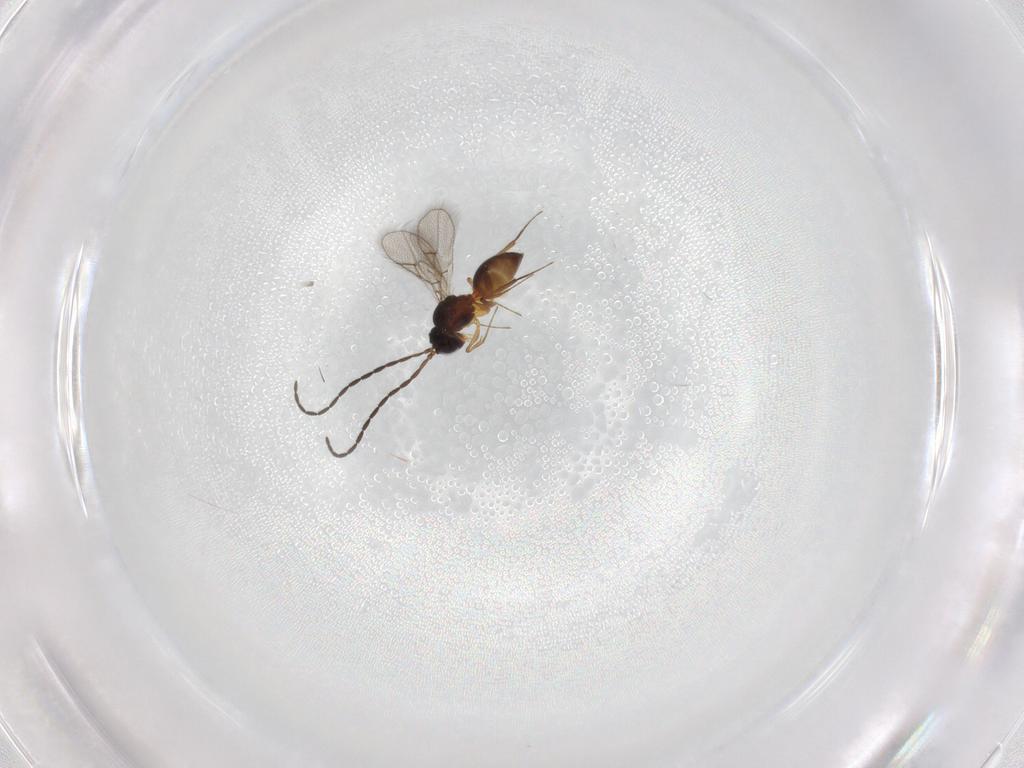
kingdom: Animalia
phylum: Arthropoda
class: Insecta
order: Hymenoptera
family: Figitidae
